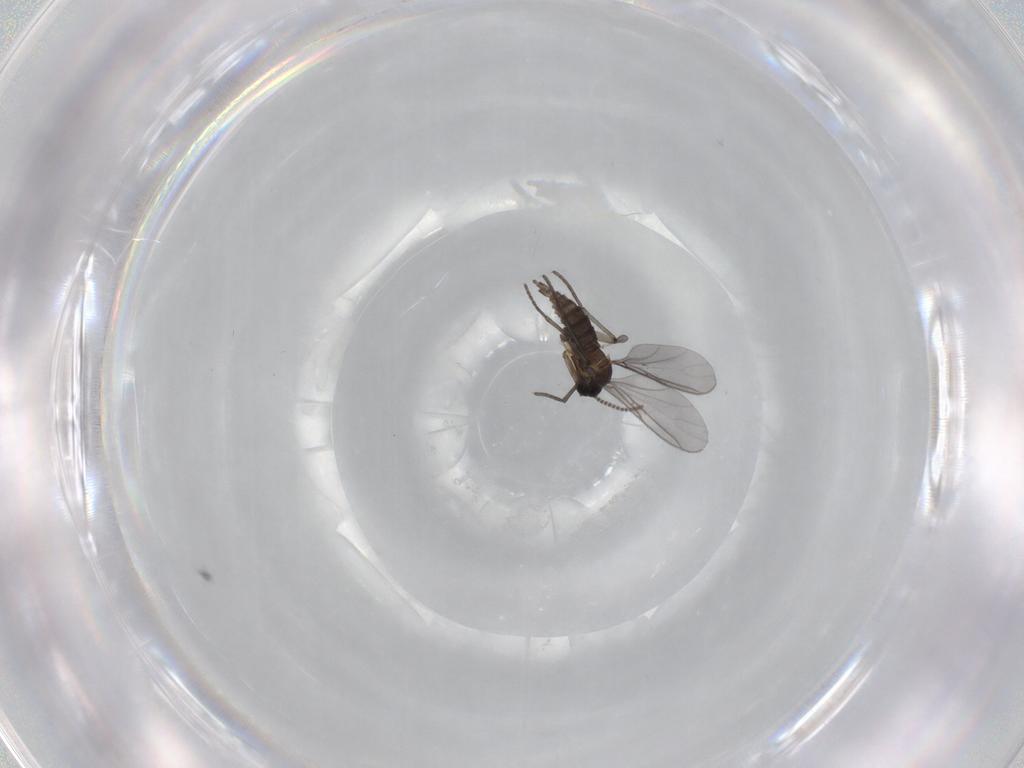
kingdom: Animalia
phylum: Arthropoda
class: Insecta
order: Diptera
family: Sciaridae
